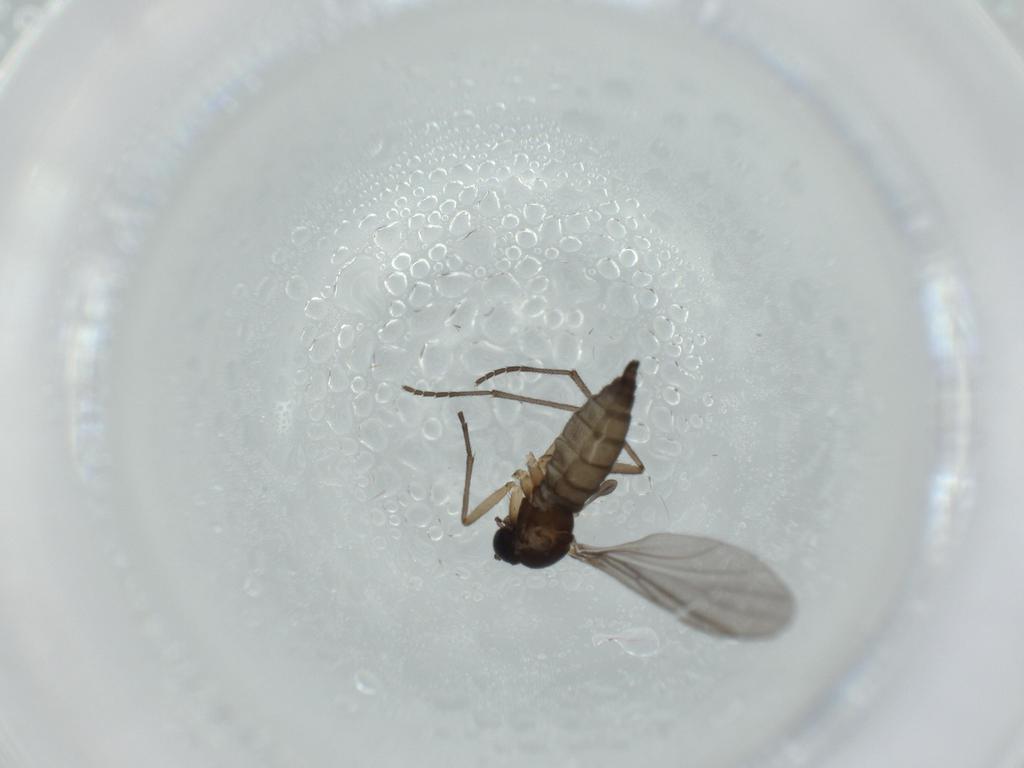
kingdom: Animalia
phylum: Arthropoda
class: Insecta
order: Diptera
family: Sciaridae
